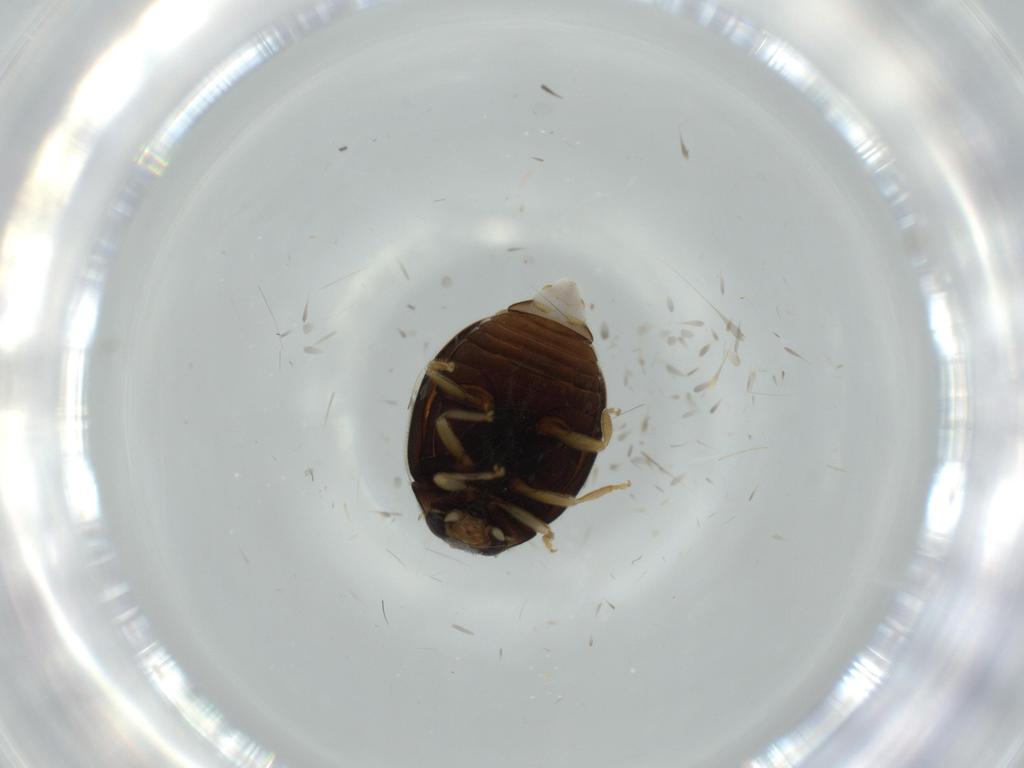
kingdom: Animalia
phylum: Arthropoda
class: Insecta
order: Coleoptera
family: Coccinellidae
